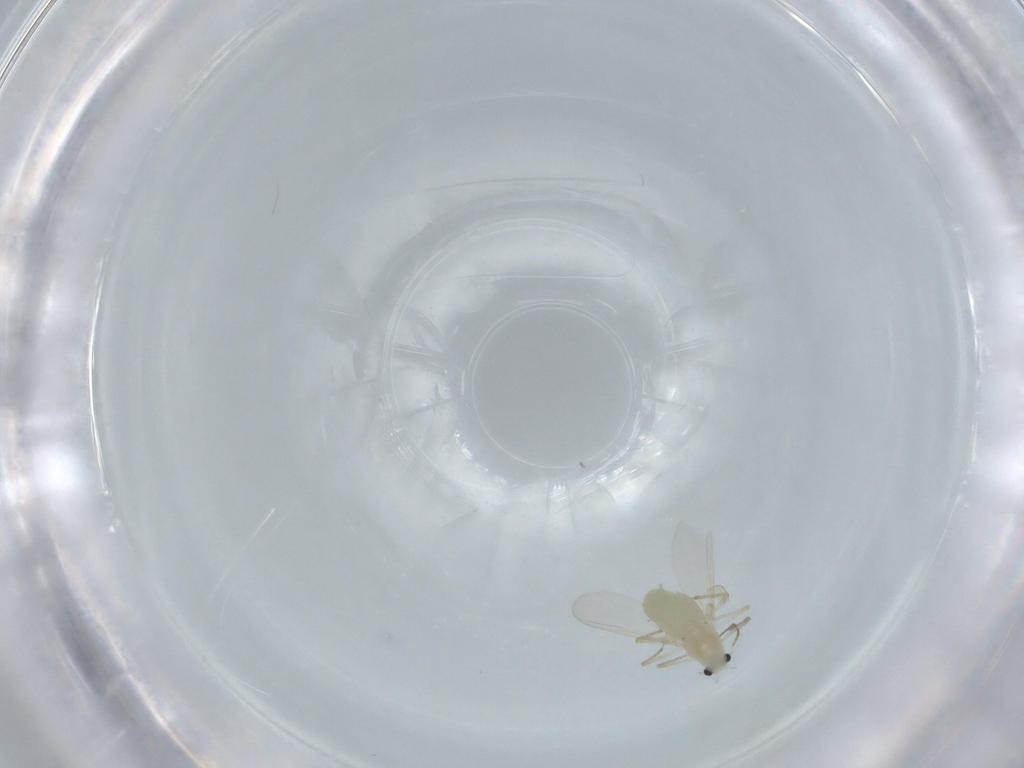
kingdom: Animalia
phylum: Arthropoda
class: Insecta
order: Diptera
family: Chironomidae
